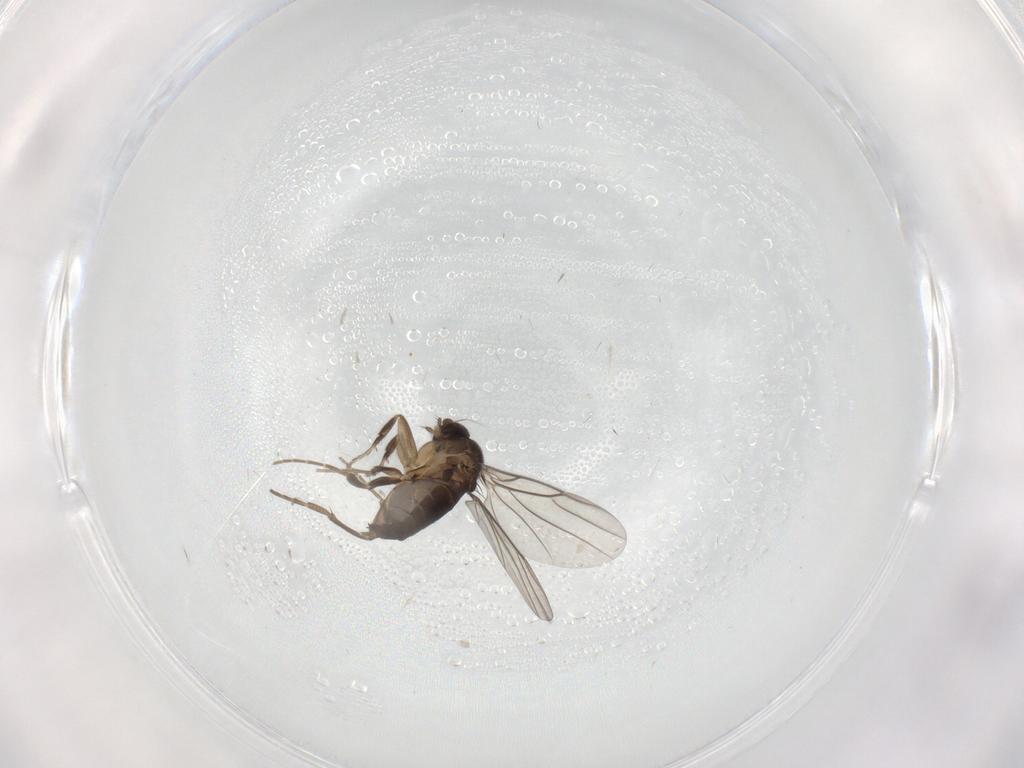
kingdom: Animalia
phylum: Arthropoda
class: Insecta
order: Diptera
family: Phoridae
